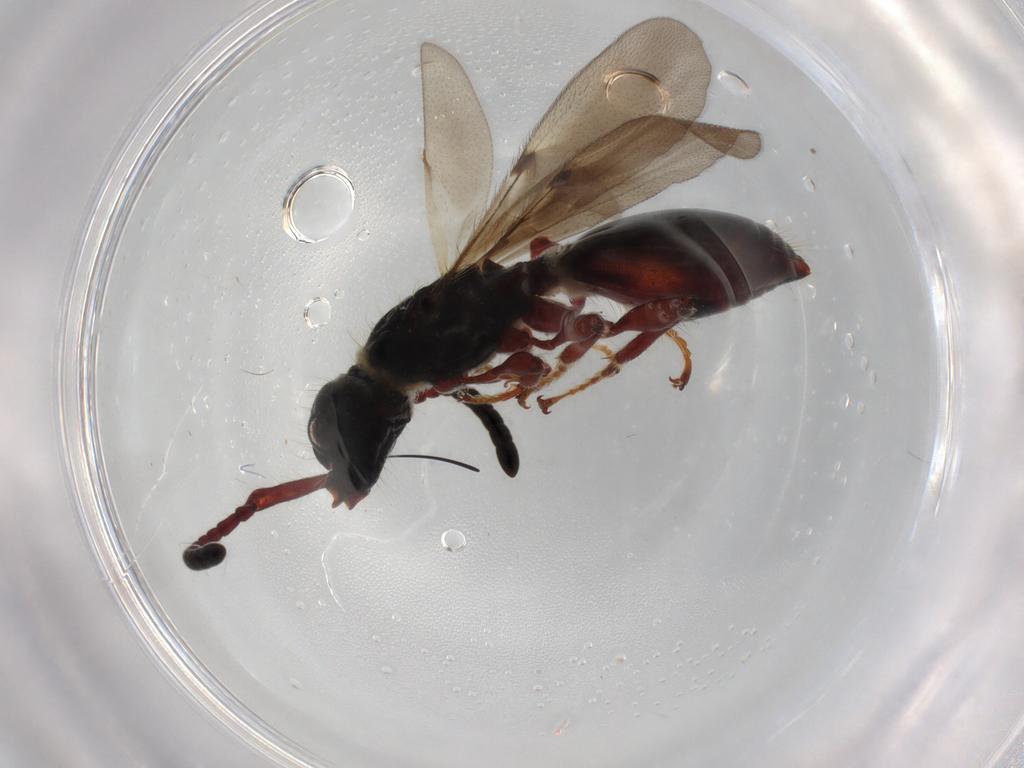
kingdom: Animalia
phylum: Arthropoda
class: Insecta
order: Hymenoptera
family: Diapriidae
